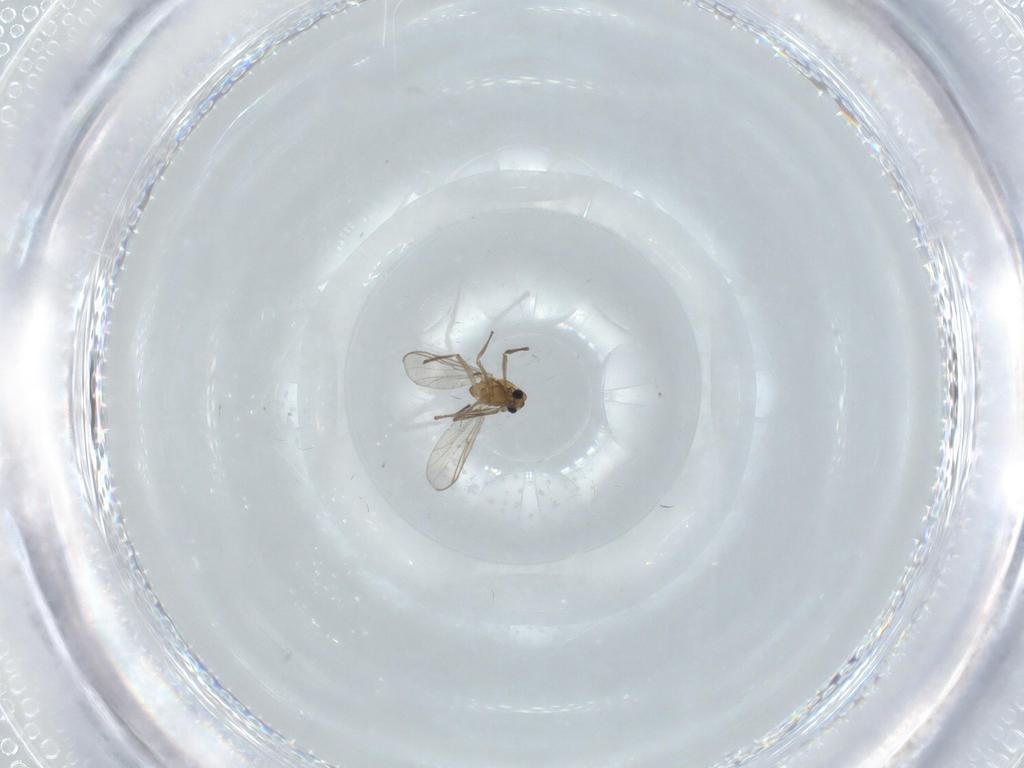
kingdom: Animalia
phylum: Arthropoda
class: Insecta
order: Diptera
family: Chironomidae
